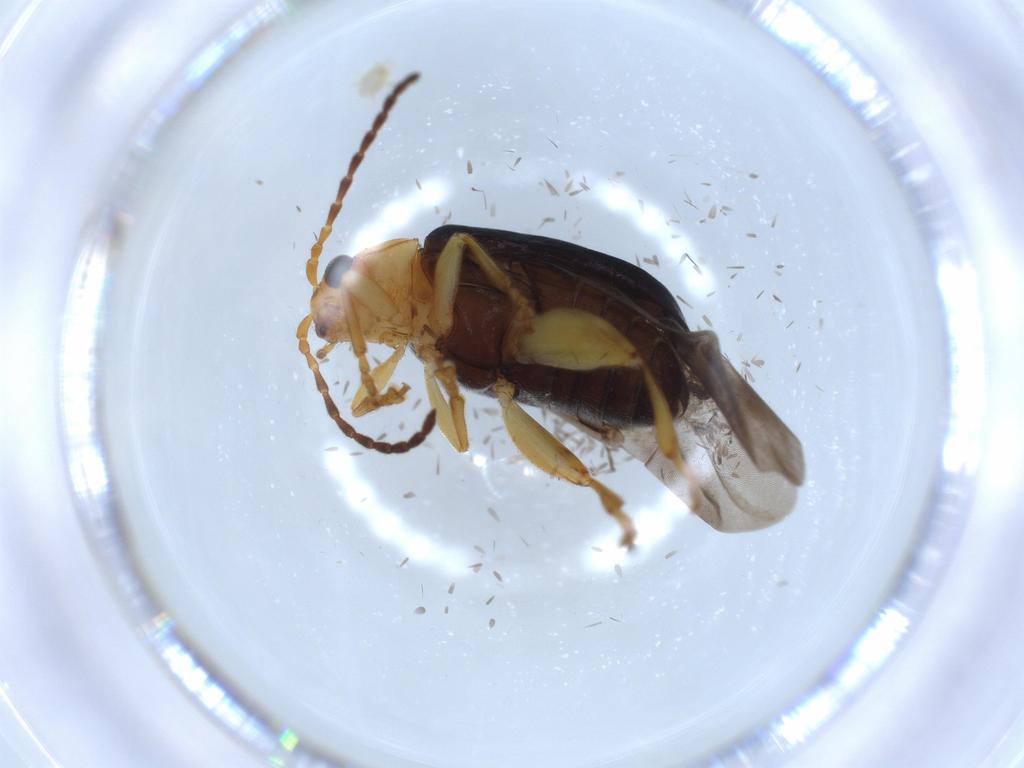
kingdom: Animalia
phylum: Arthropoda
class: Insecta
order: Coleoptera
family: Chrysomelidae
